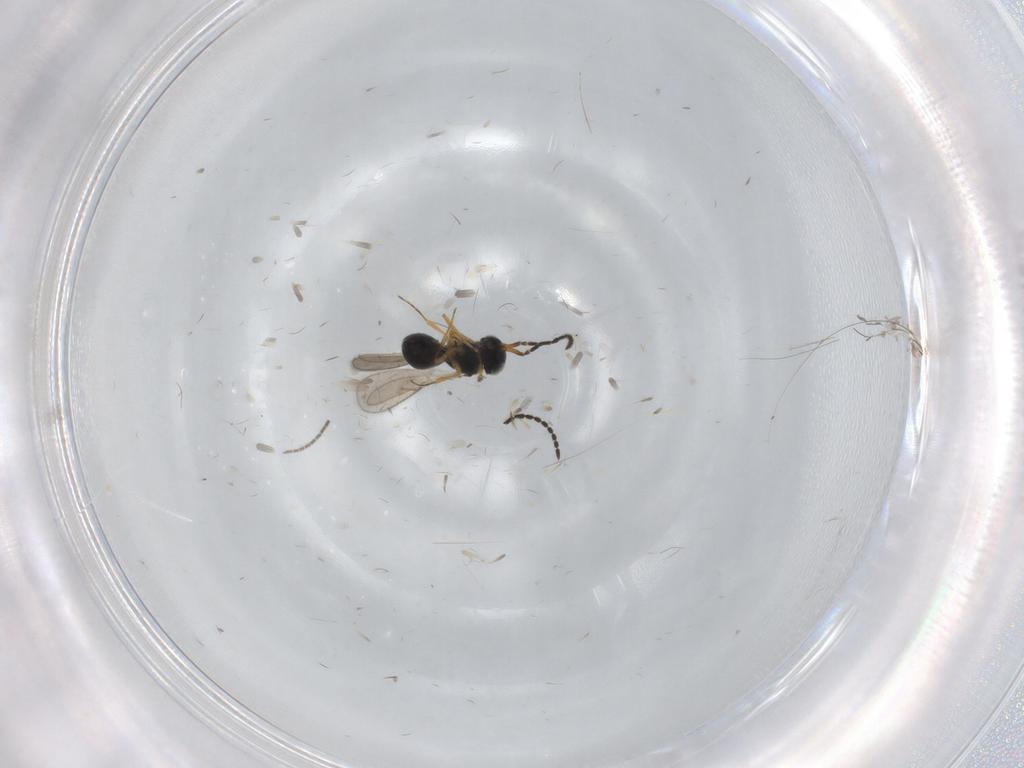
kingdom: Animalia
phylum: Arthropoda
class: Insecta
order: Hymenoptera
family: Scelionidae
